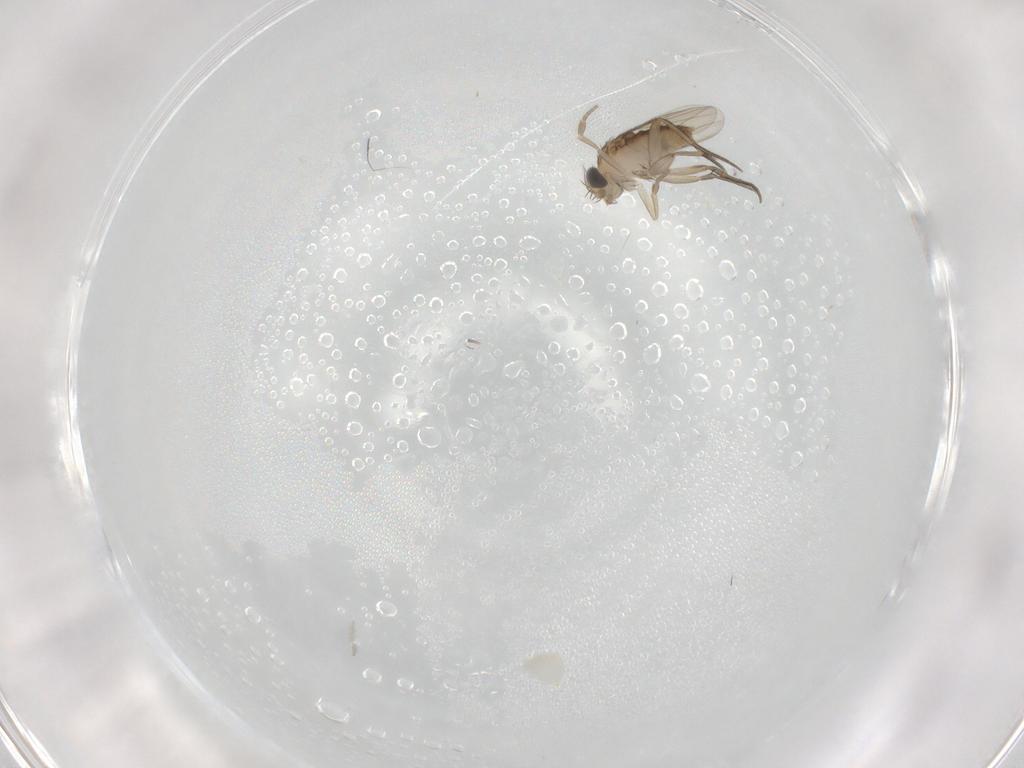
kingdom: Animalia
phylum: Arthropoda
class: Insecta
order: Diptera
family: Phoridae
